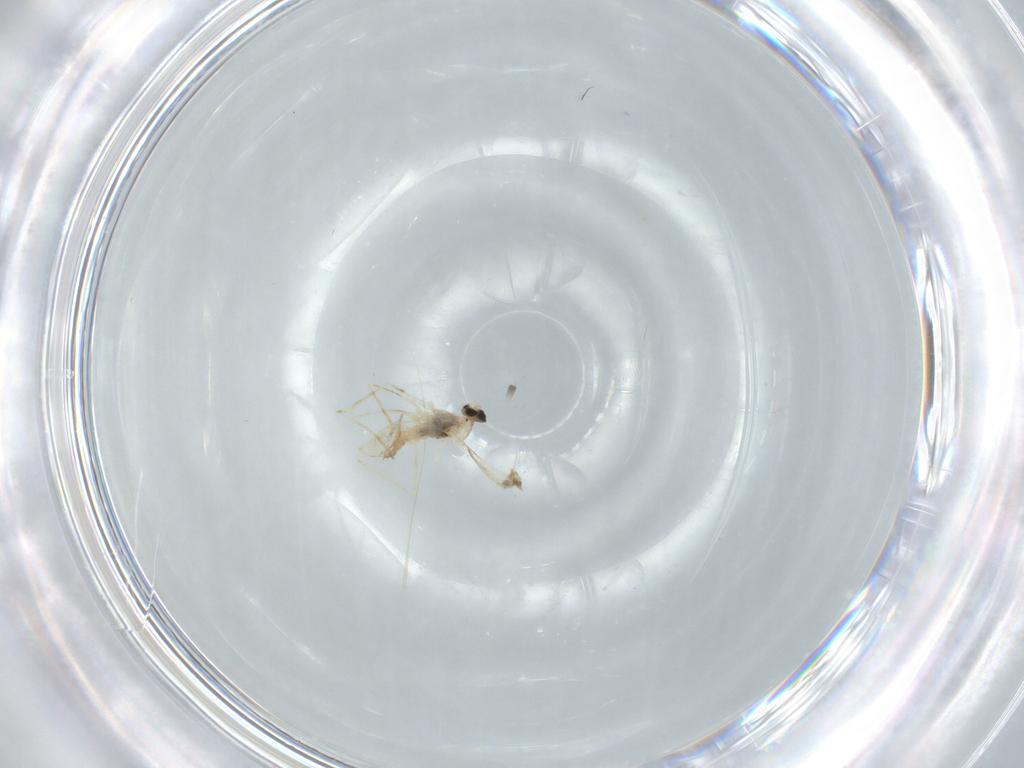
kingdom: Animalia
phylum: Arthropoda
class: Insecta
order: Diptera
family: Cecidomyiidae
